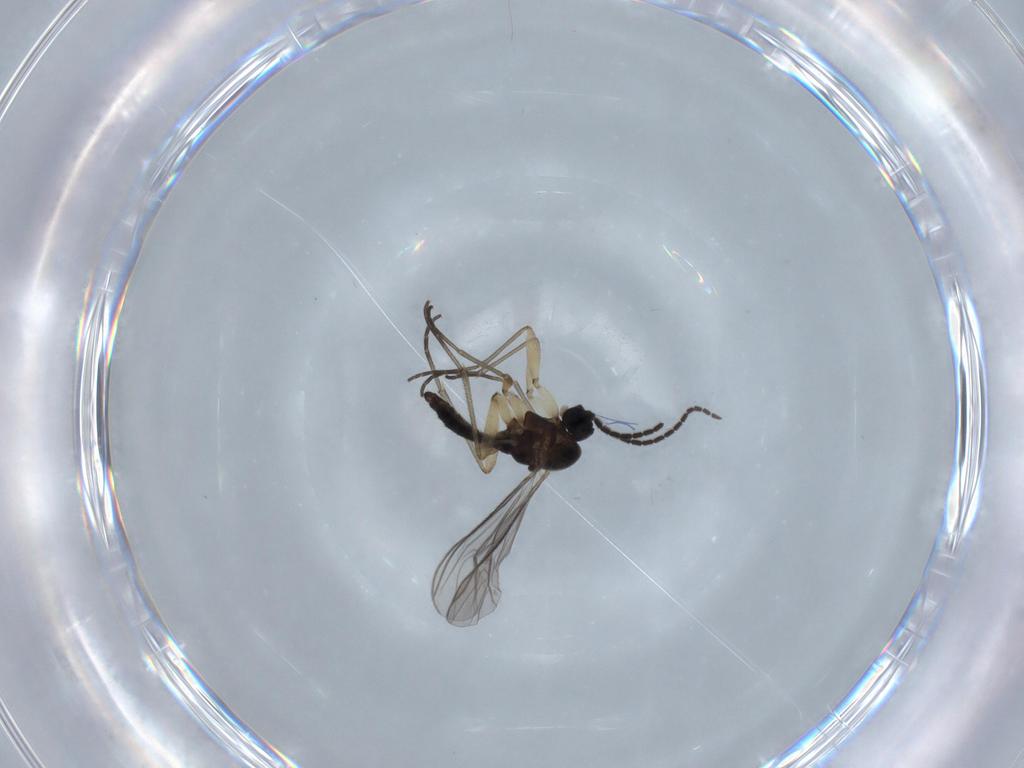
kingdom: Animalia
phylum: Arthropoda
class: Insecta
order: Diptera
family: Sciaridae
